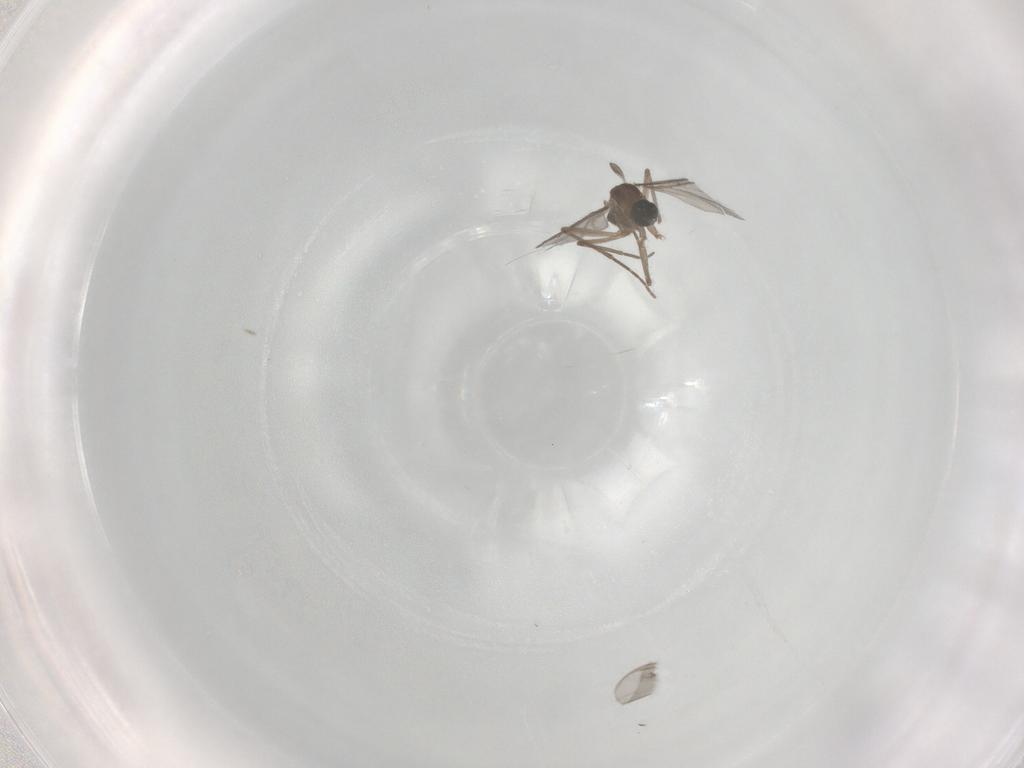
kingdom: Animalia
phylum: Arthropoda
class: Insecta
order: Diptera
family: Sciaridae
